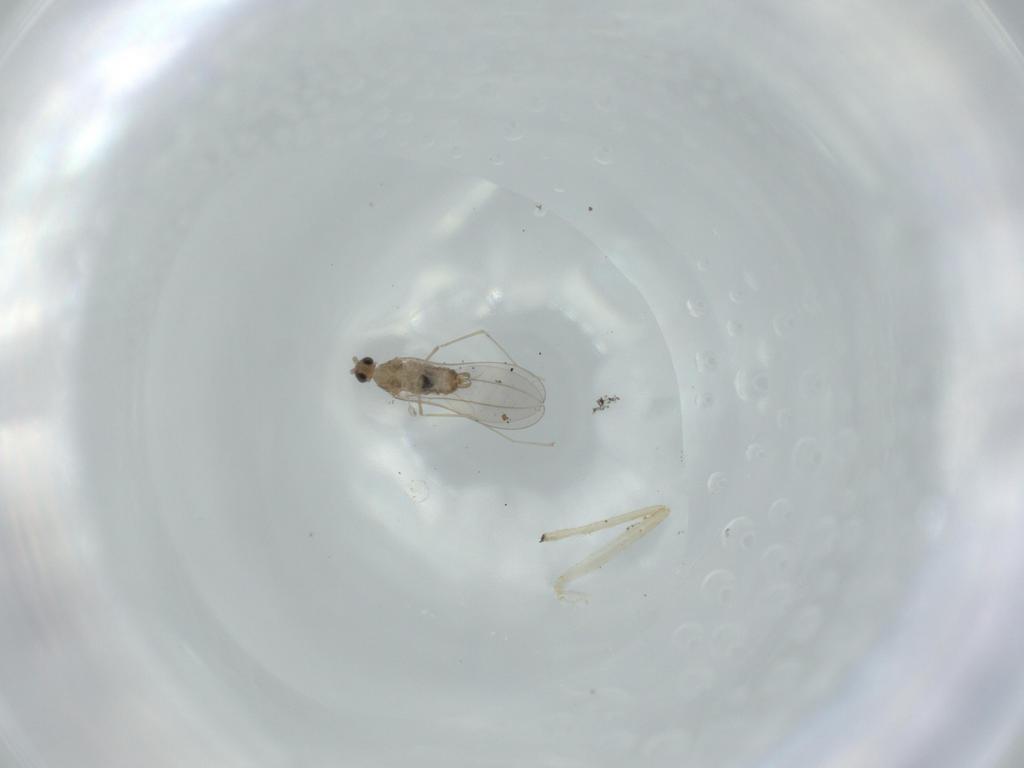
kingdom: Animalia
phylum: Arthropoda
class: Insecta
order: Diptera
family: Cecidomyiidae
